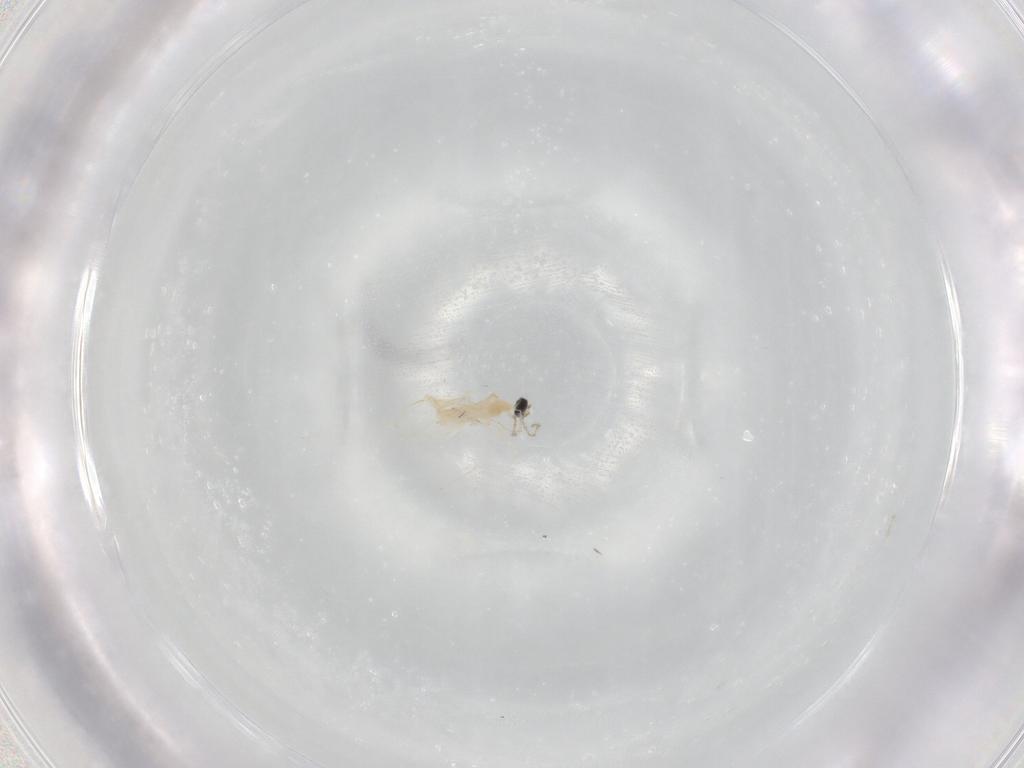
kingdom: Animalia
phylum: Arthropoda
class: Insecta
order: Diptera
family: Cecidomyiidae
